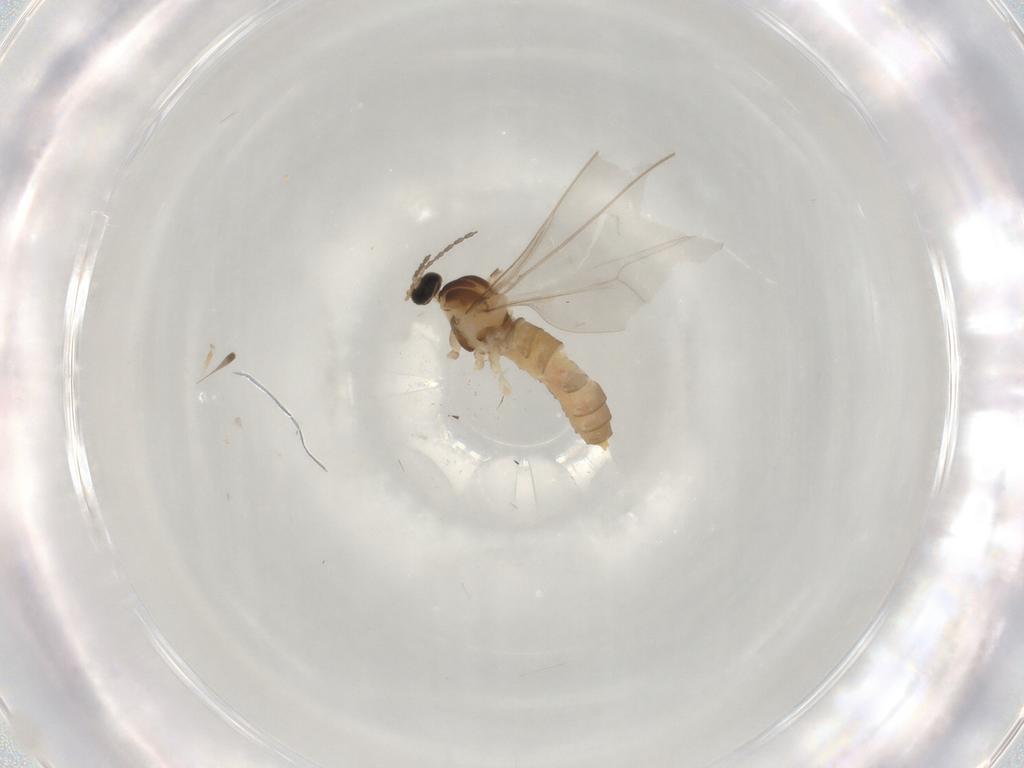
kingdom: Animalia
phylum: Arthropoda
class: Insecta
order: Diptera
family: Cecidomyiidae
